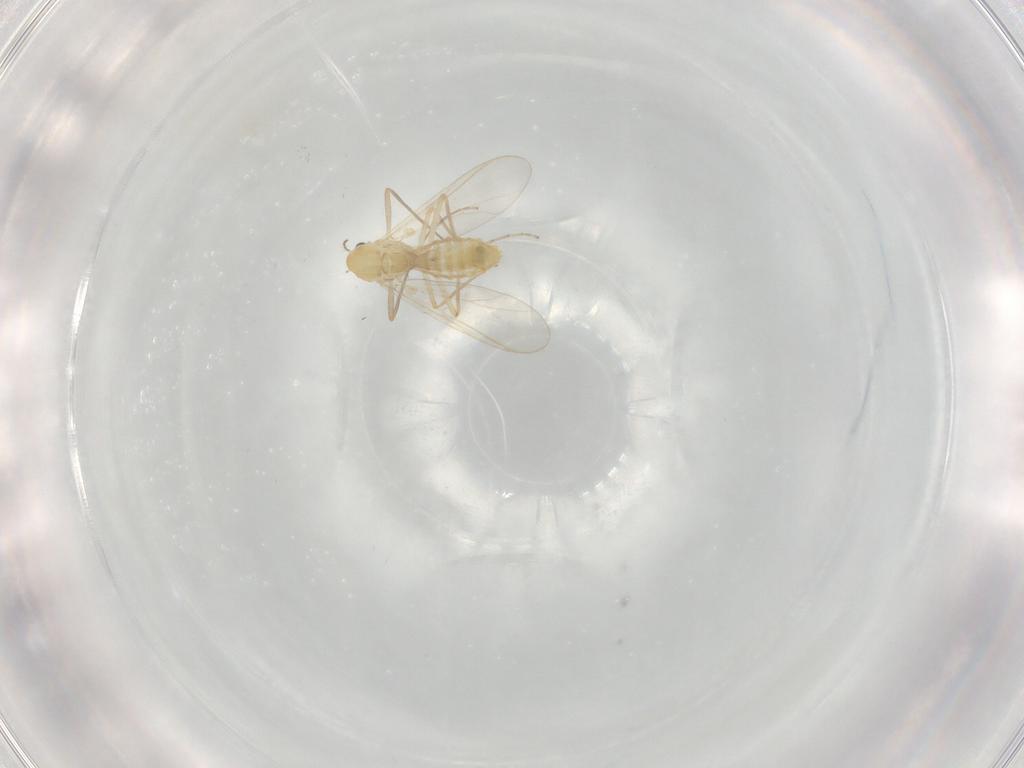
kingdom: Animalia
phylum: Arthropoda
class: Insecta
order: Diptera
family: Chironomidae
